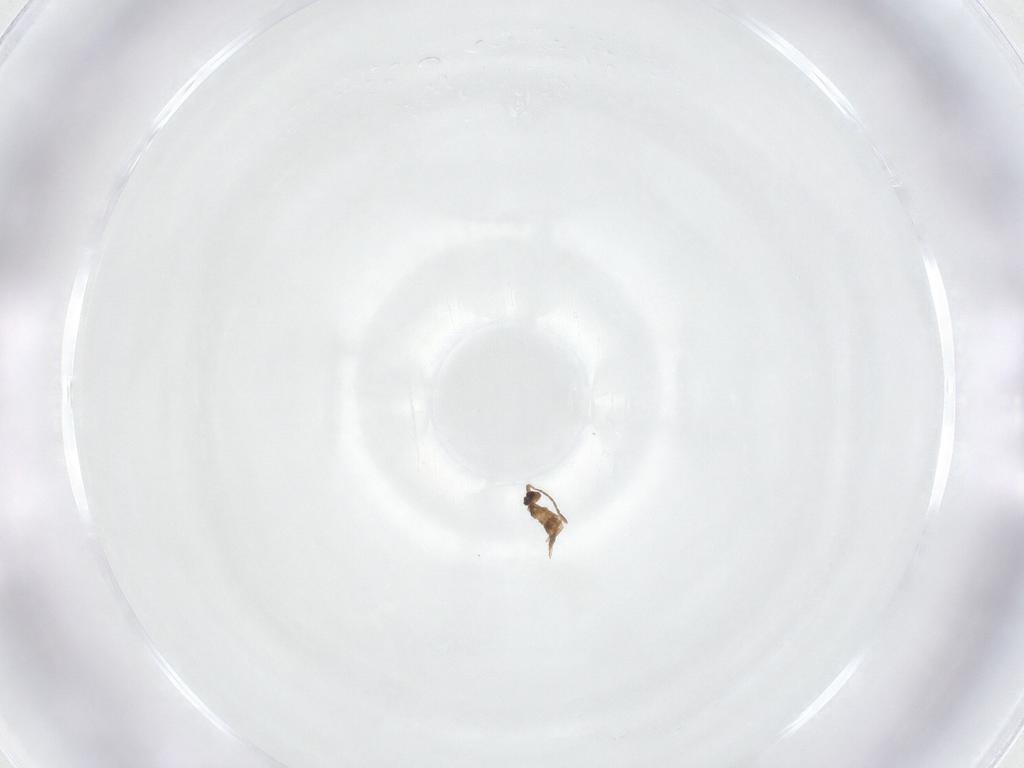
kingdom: Animalia
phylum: Arthropoda
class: Insecta
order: Hymenoptera
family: Mymaridae
